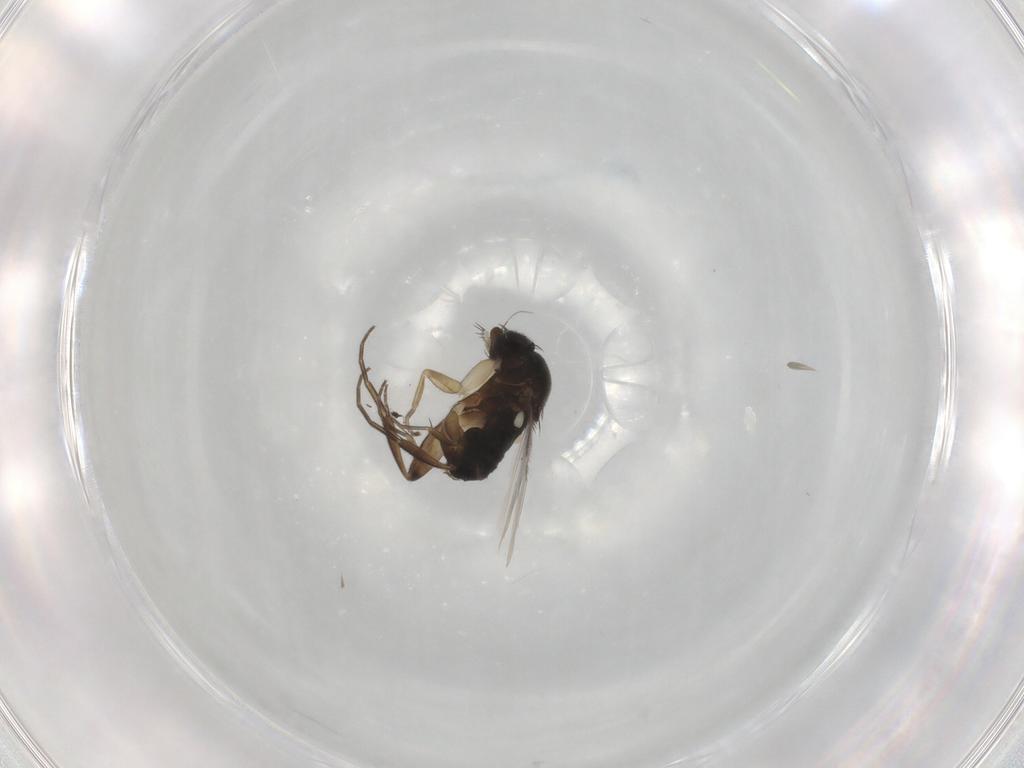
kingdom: Animalia
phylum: Arthropoda
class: Insecta
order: Diptera
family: Phoridae
